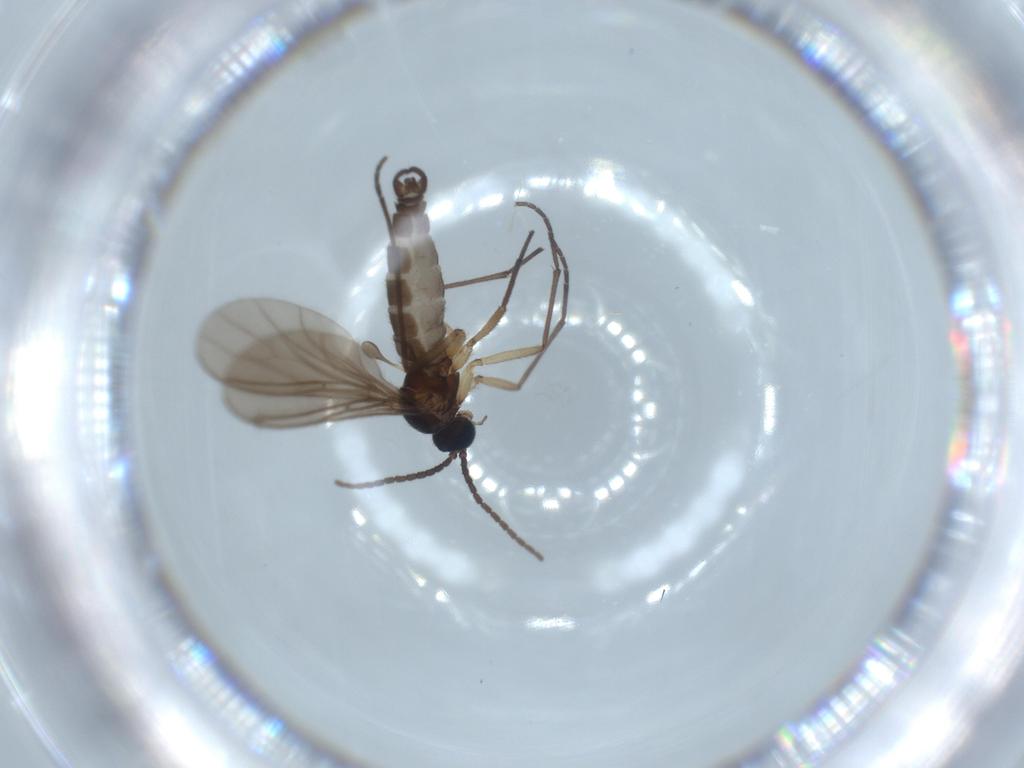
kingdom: Animalia
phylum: Arthropoda
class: Insecta
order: Diptera
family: Sciaridae
